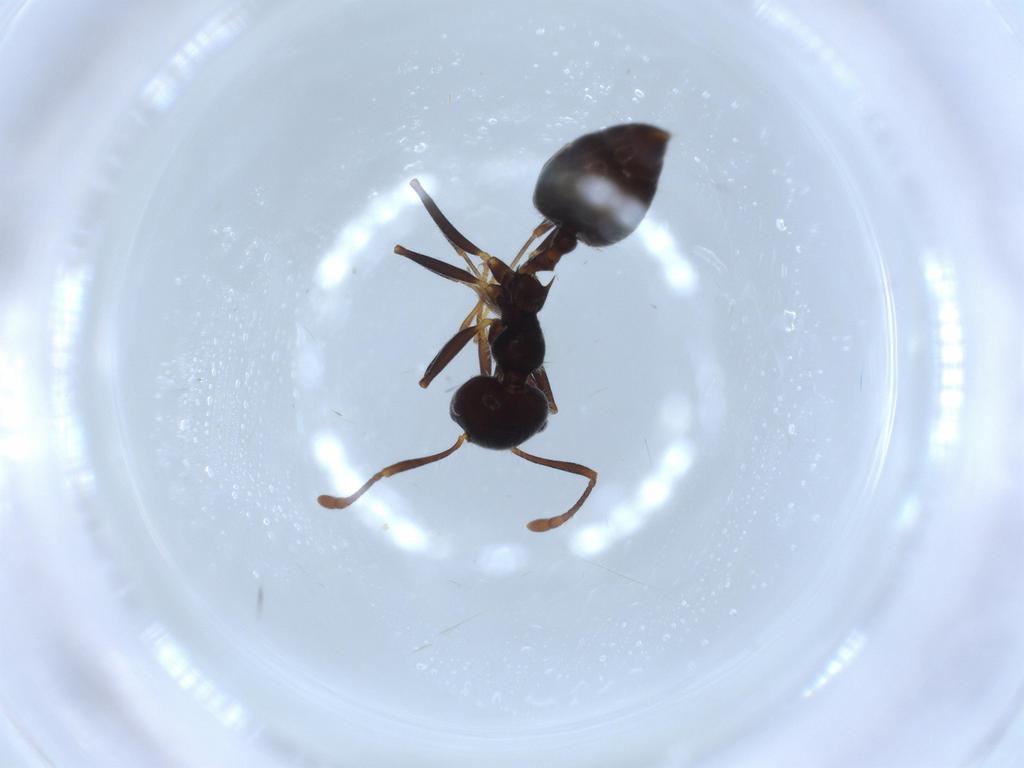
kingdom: Animalia
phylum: Arthropoda
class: Insecta
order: Hymenoptera
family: Formicidae
